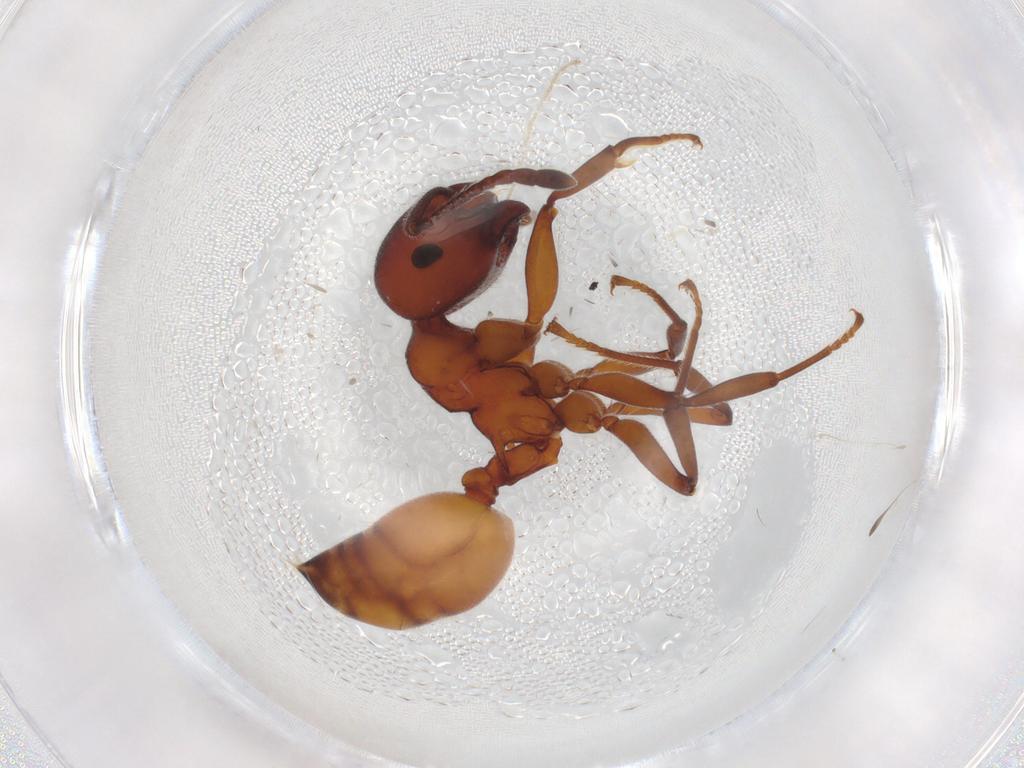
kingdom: Animalia
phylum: Arthropoda
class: Insecta
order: Hymenoptera
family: Formicidae
